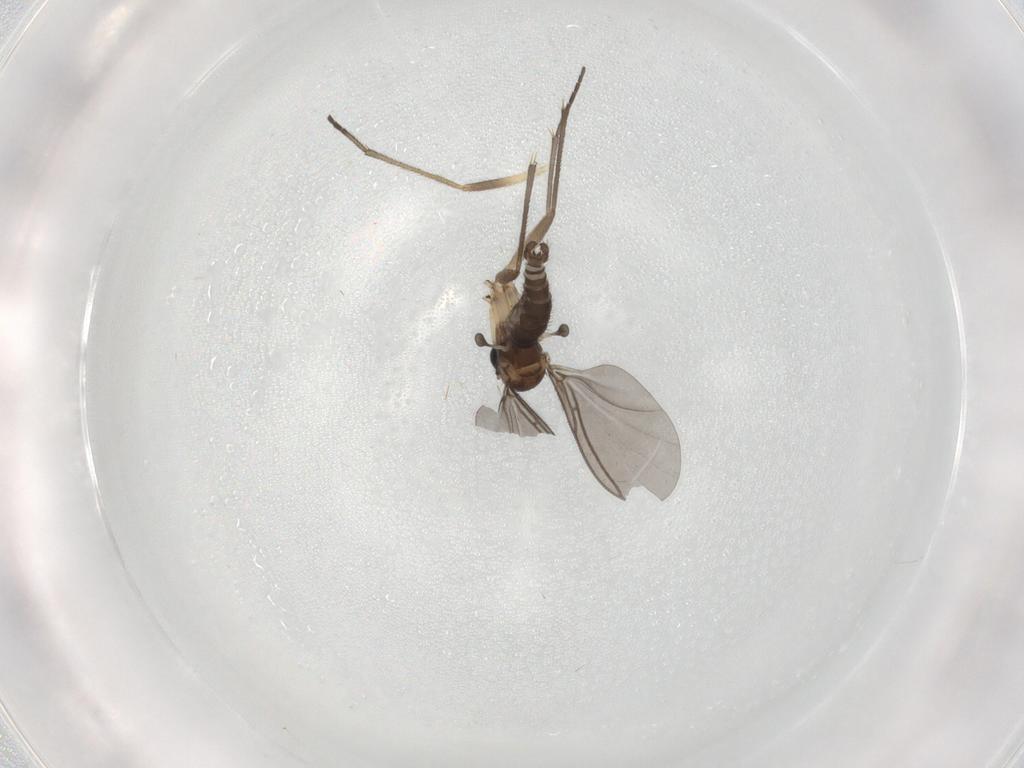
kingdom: Animalia
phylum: Arthropoda
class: Insecta
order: Diptera
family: Sciaridae
